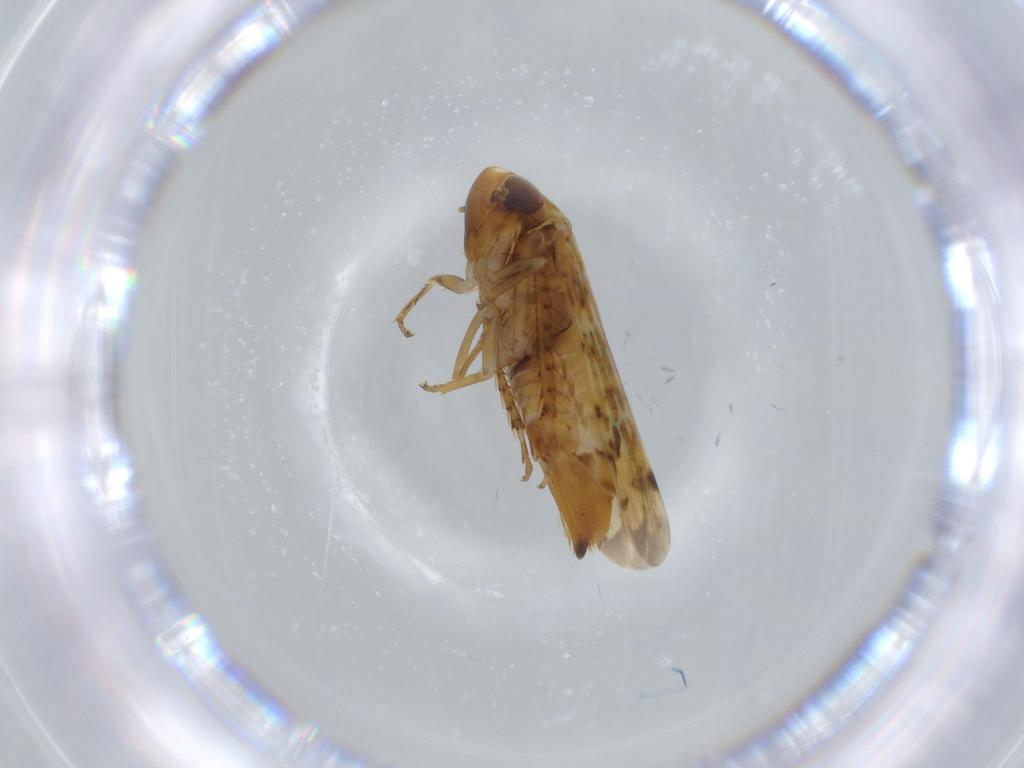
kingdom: Animalia
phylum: Arthropoda
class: Insecta
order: Hemiptera
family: Cicadellidae
